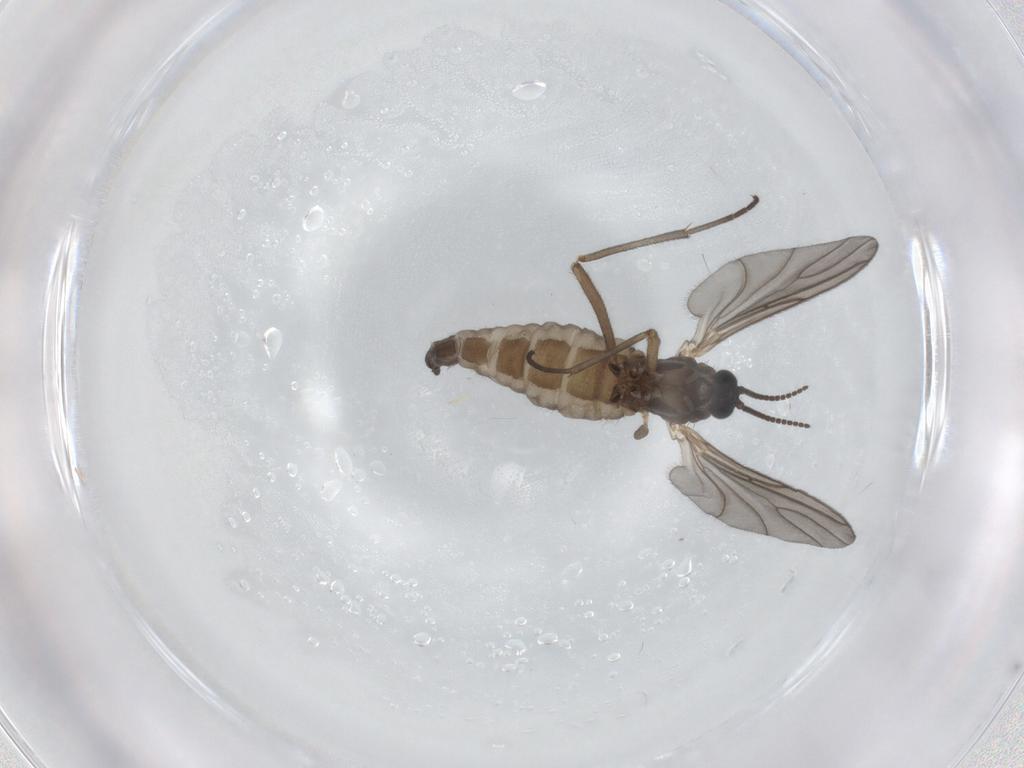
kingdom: Animalia
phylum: Arthropoda
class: Insecta
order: Diptera
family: Sciaridae
